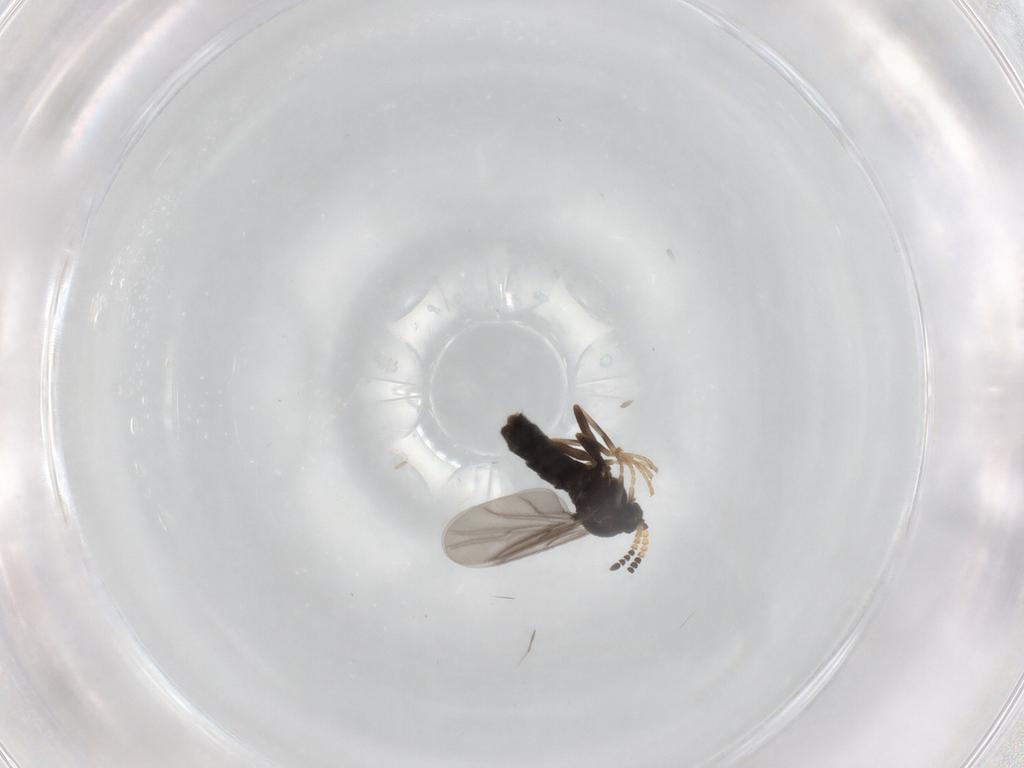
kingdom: Animalia
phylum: Arthropoda
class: Insecta
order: Diptera
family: Scatopsidae
